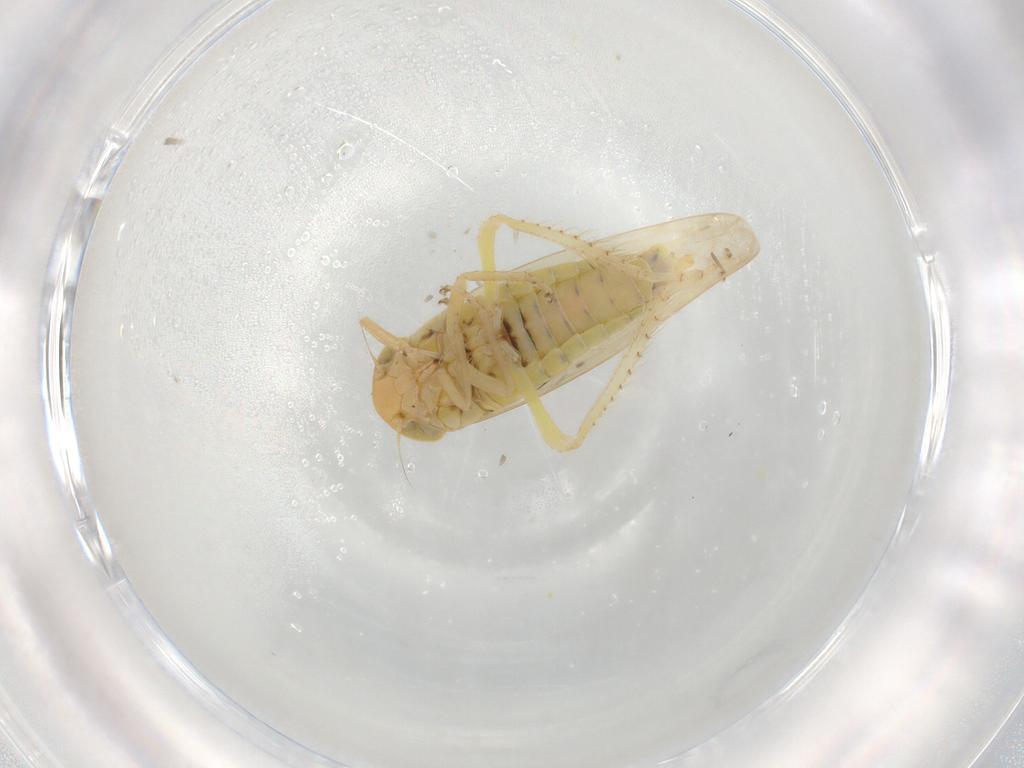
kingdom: Animalia
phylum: Arthropoda
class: Insecta
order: Hemiptera
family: Cicadellidae
